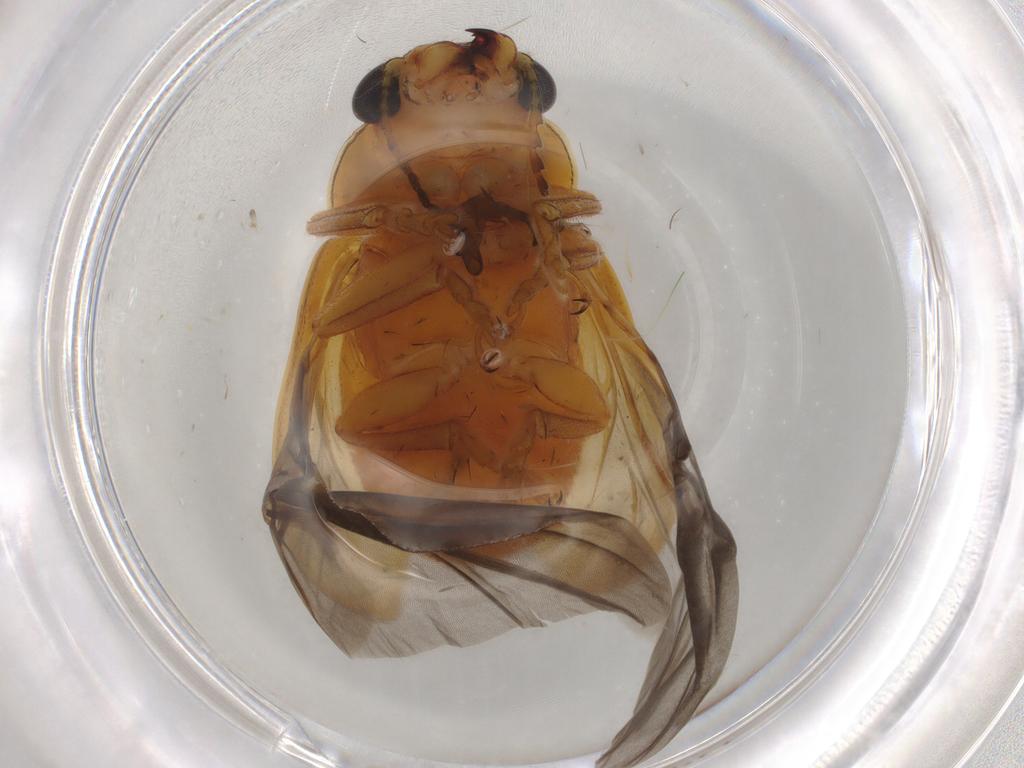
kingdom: Animalia
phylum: Arthropoda
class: Insecta
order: Coleoptera
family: Chrysomelidae
